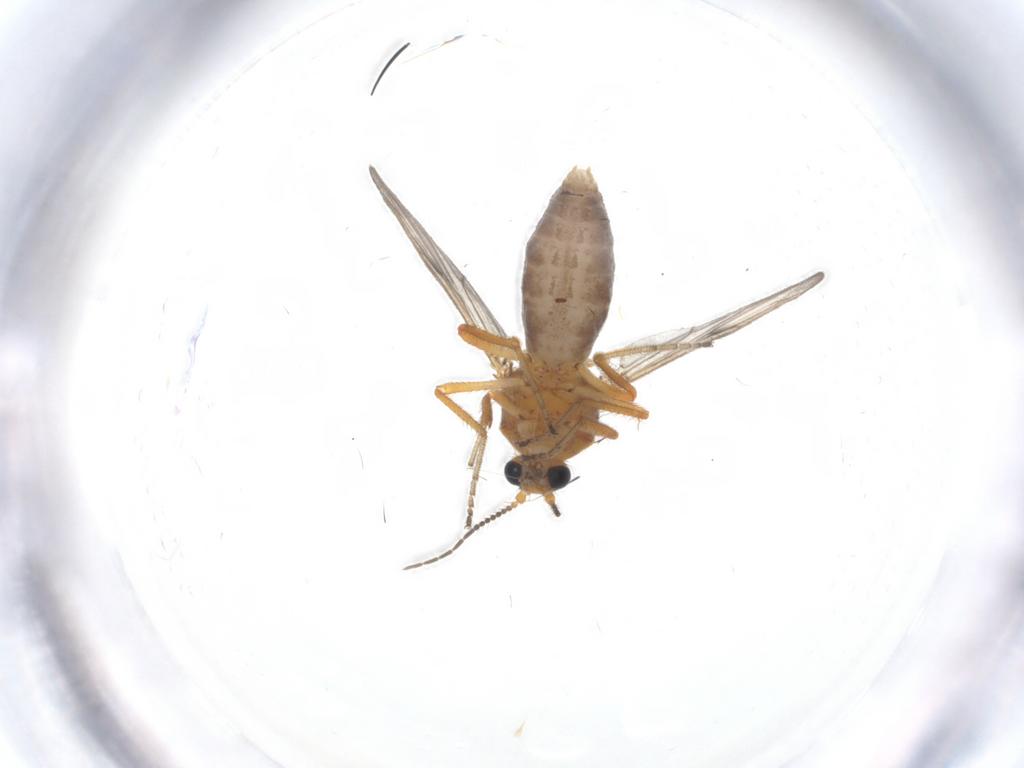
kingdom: Animalia
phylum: Arthropoda
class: Insecta
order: Diptera
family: Ceratopogonidae
